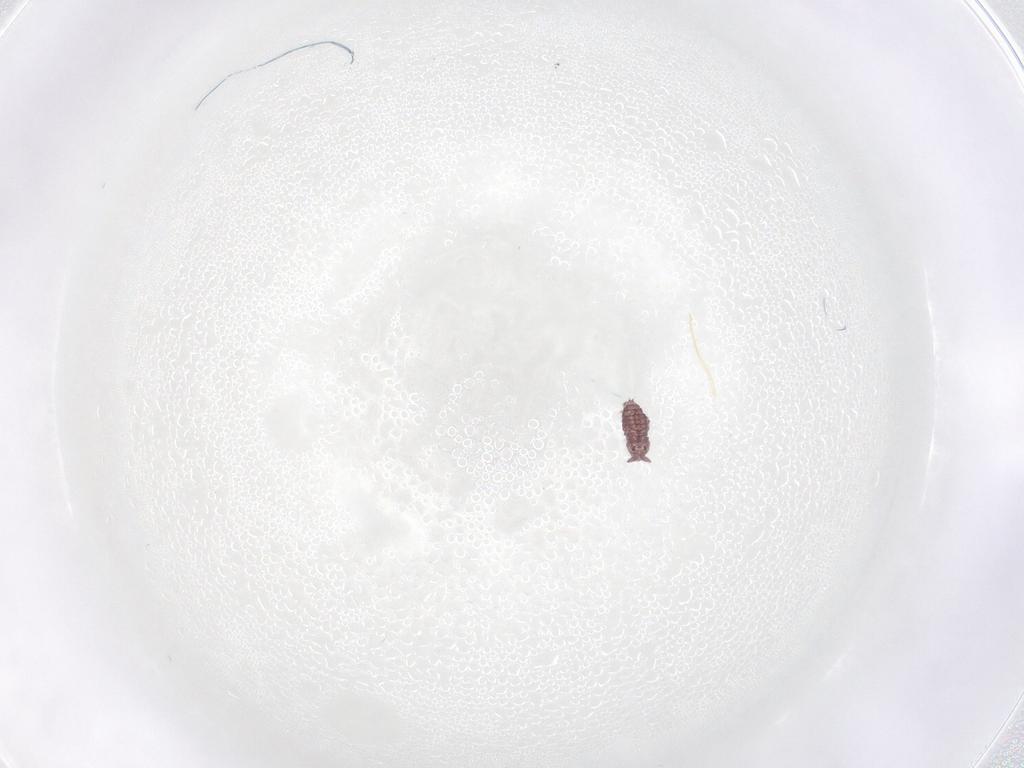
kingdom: Animalia
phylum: Arthropoda
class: Collembola
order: Poduromorpha
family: Hypogastruridae
